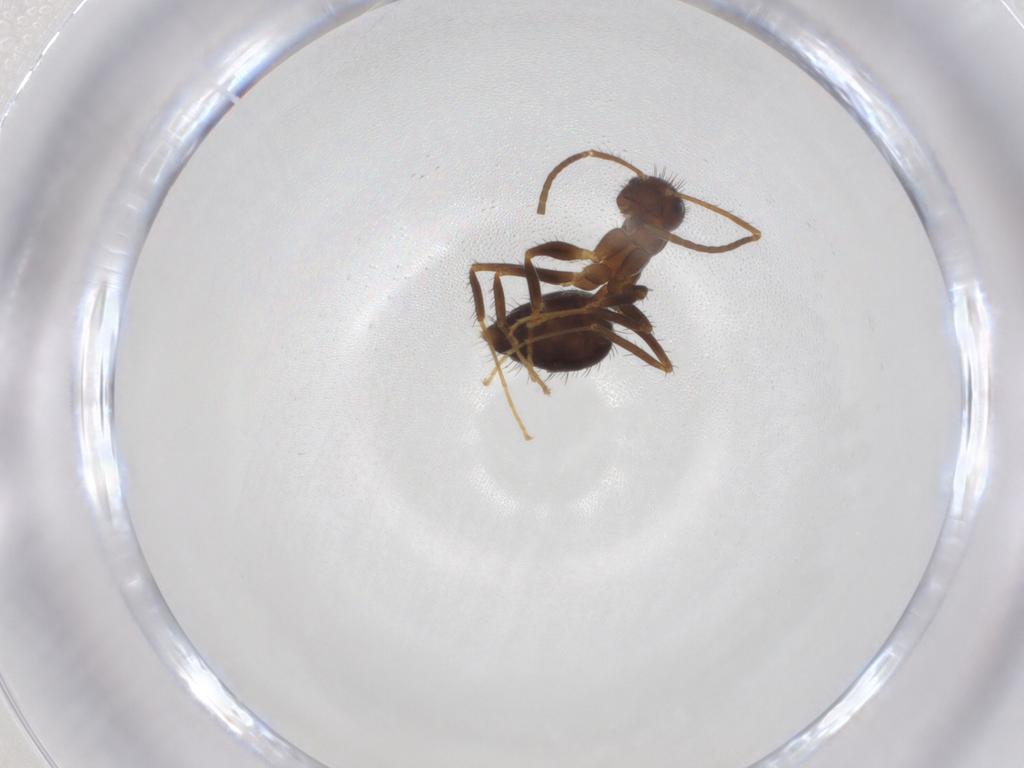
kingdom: Animalia
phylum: Arthropoda
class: Insecta
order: Hymenoptera
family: Formicidae
